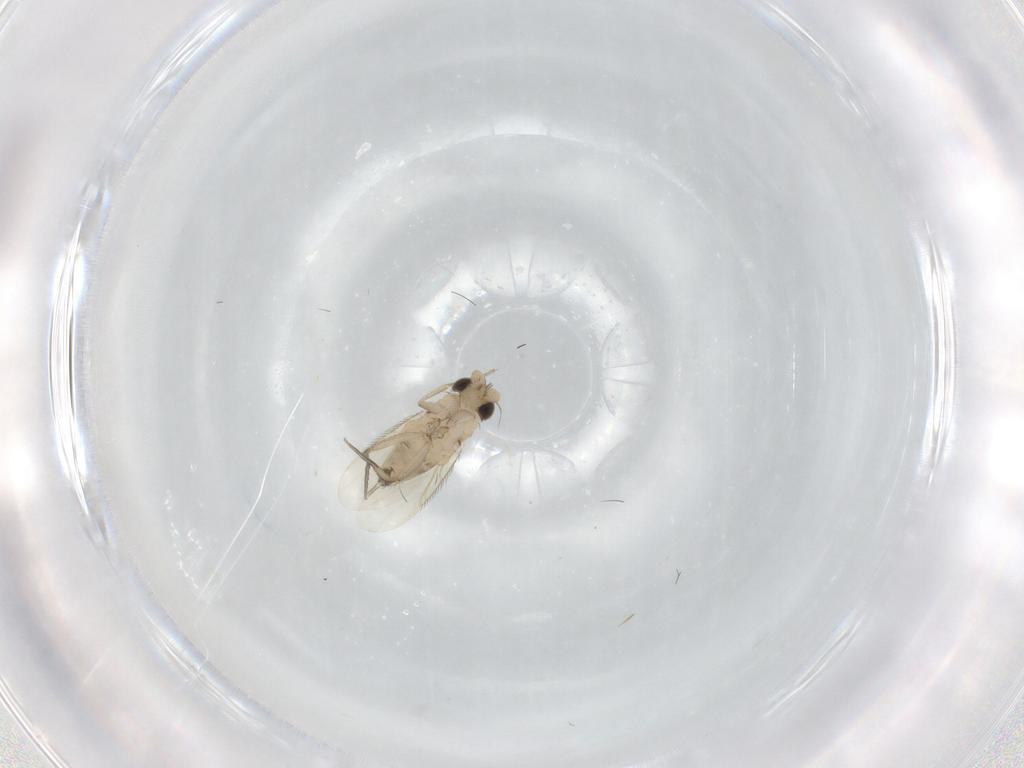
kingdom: Animalia
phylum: Arthropoda
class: Insecta
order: Diptera
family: Phoridae
